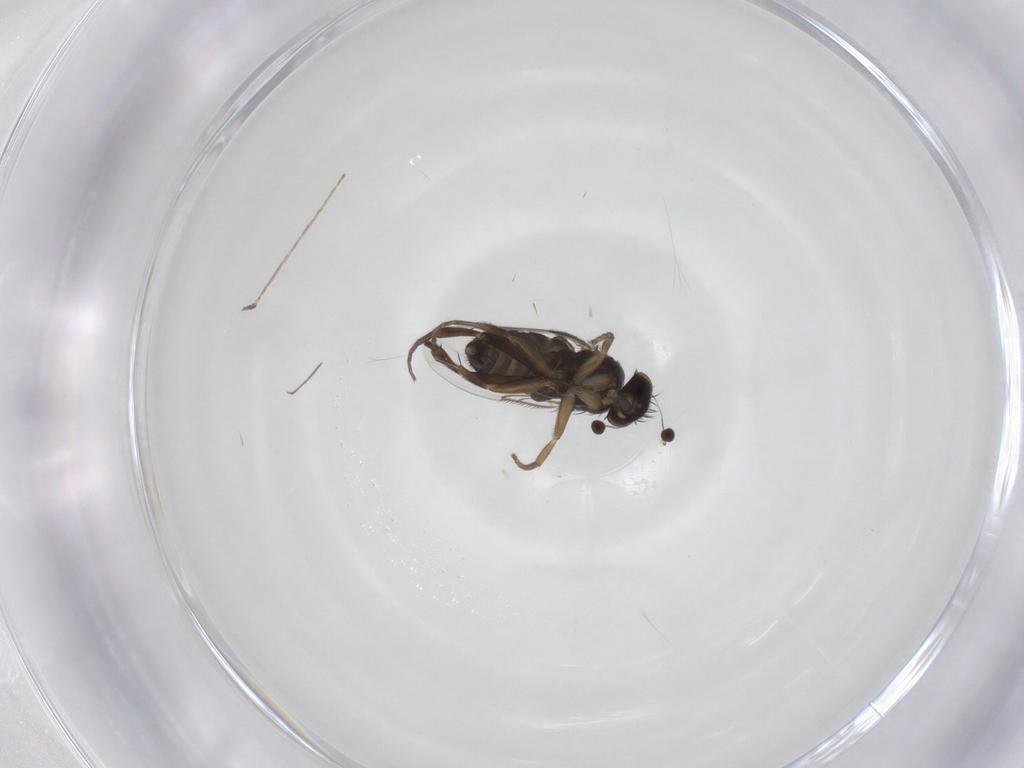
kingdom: Animalia
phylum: Arthropoda
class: Insecta
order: Diptera
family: Phoridae
